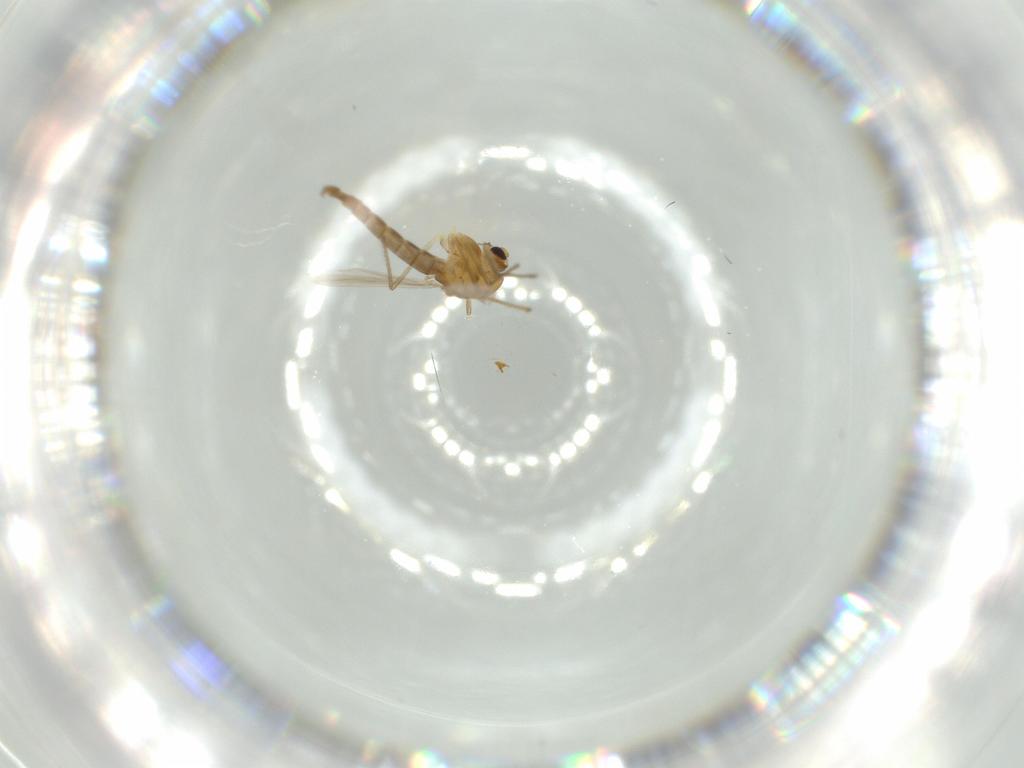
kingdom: Animalia
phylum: Arthropoda
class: Insecta
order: Diptera
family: Chironomidae
